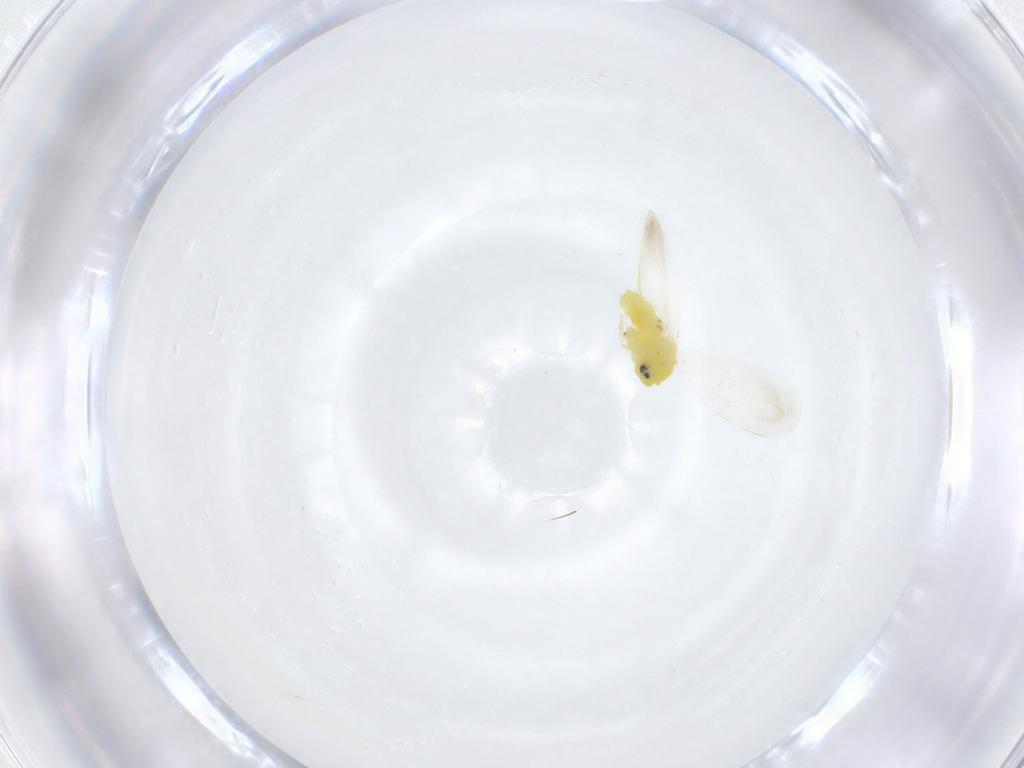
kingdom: Animalia
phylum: Arthropoda
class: Insecta
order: Hemiptera
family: Aleyrodidae
